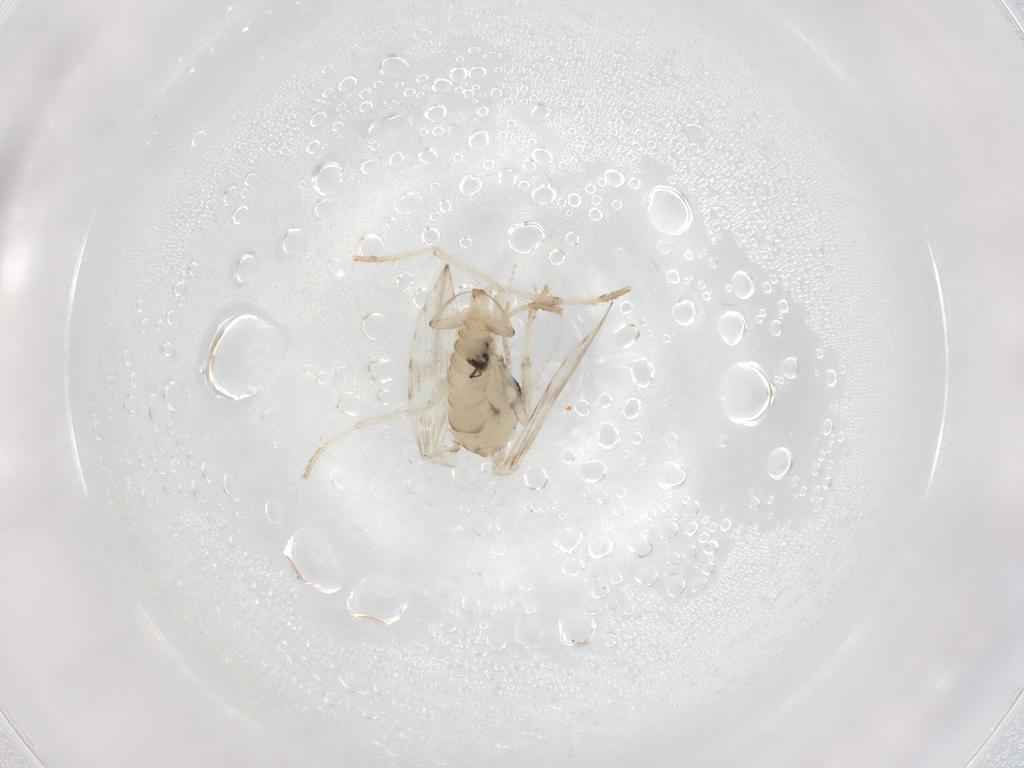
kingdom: Animalia
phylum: Arthropoda
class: Insecta
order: Diptera
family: Psychodidae
